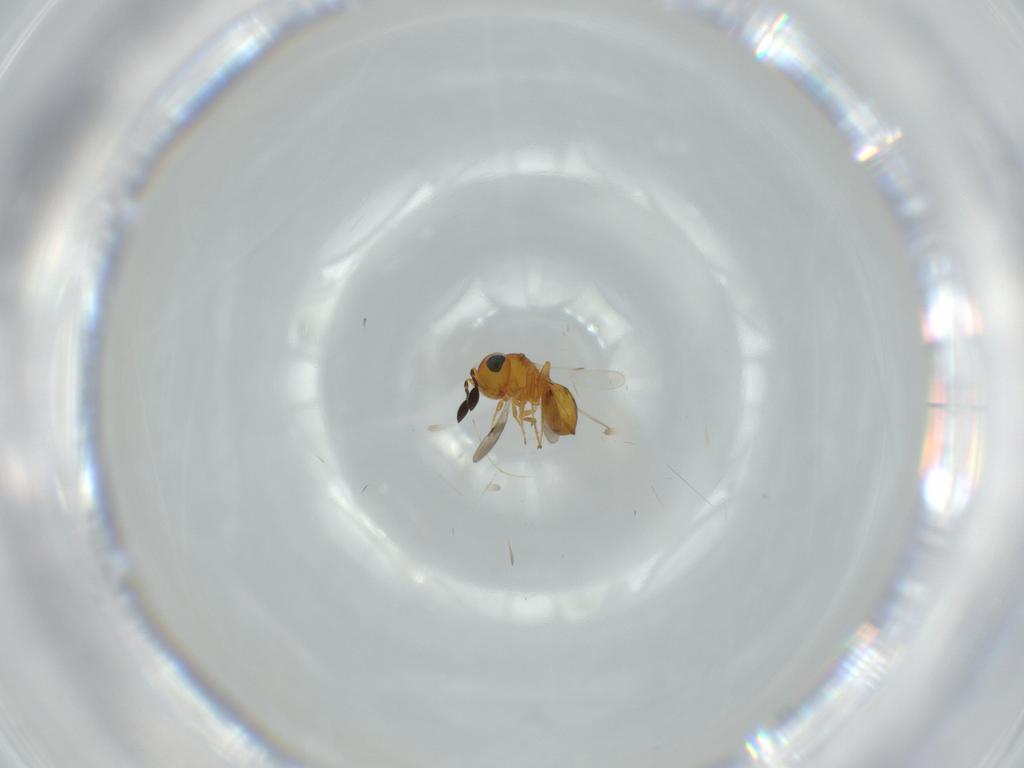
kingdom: Animalia
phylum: Arthropoda
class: Insecta
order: Hymenoptera
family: Scelionidae
